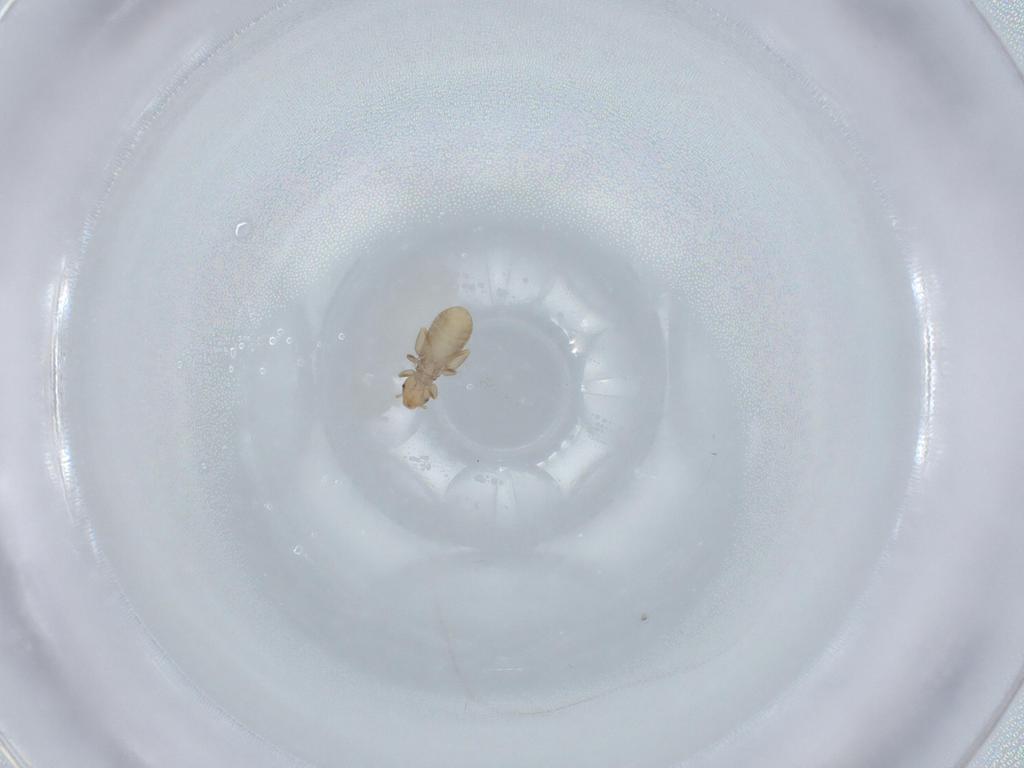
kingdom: Animalia
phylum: Arthropoda
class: Insecta
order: Psocodea
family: Liposcelididae
